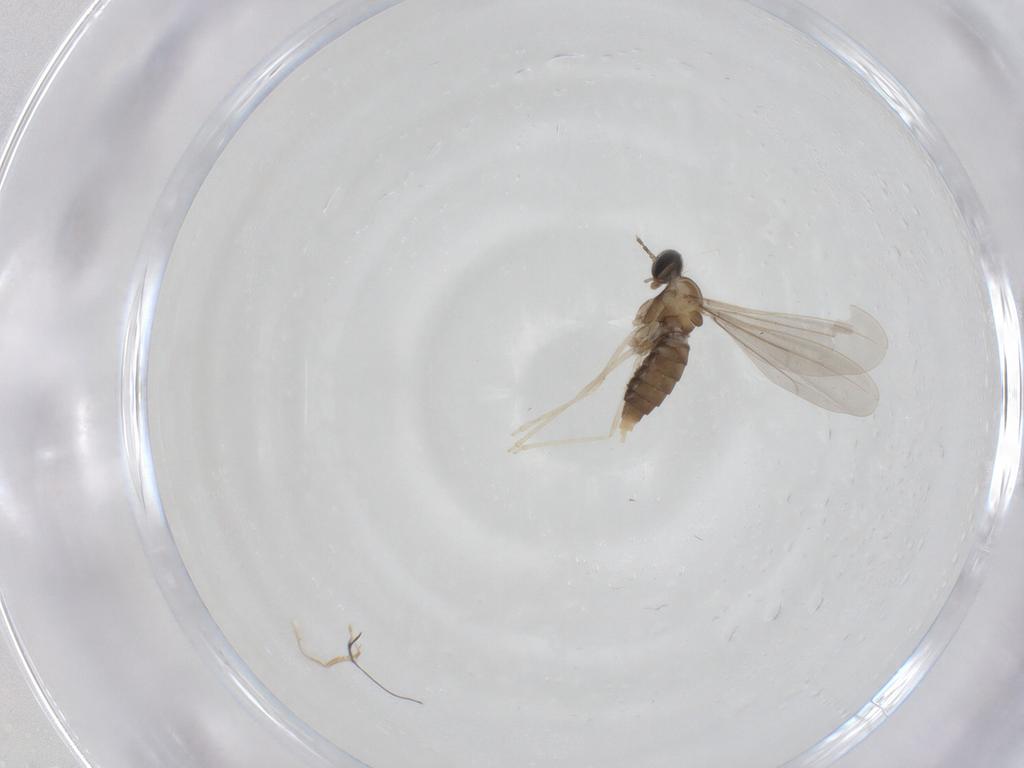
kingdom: Animalia
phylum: Arthropoda
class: Insecta
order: Diptera
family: Cecidomyiidae
